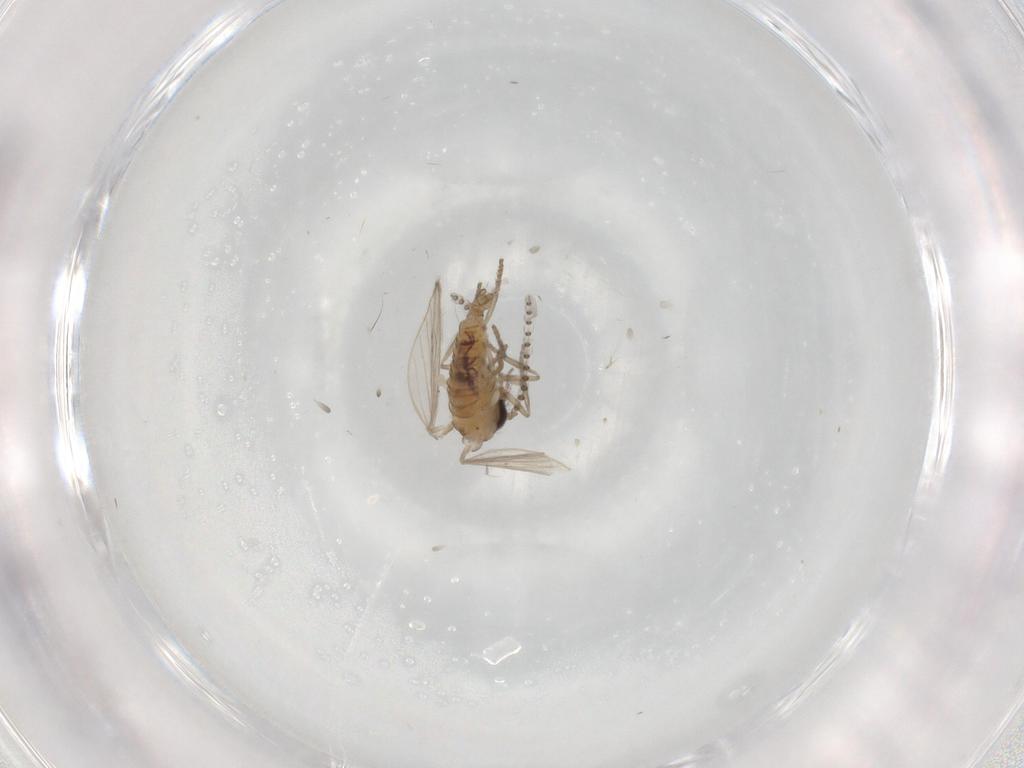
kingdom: Animalia
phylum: Arthropoda
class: Insecta
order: Diptera
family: Psychodidae
